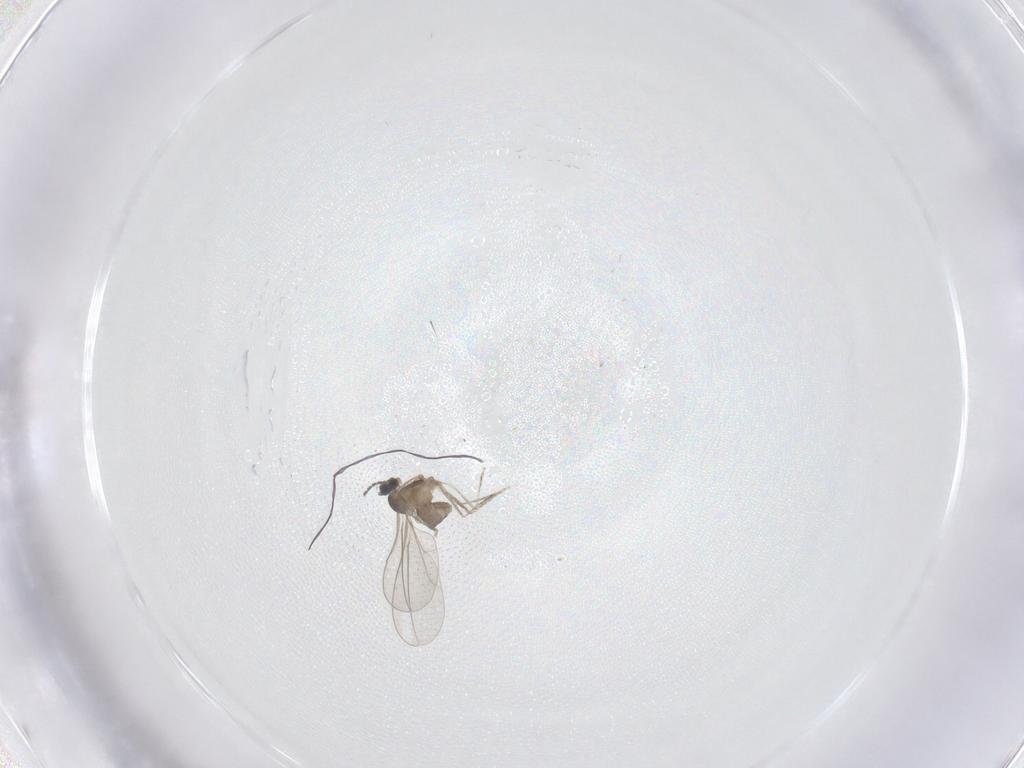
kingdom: Animalia
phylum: Arthropoda
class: Insecta
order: Diptera
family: Cecidomyiidae
